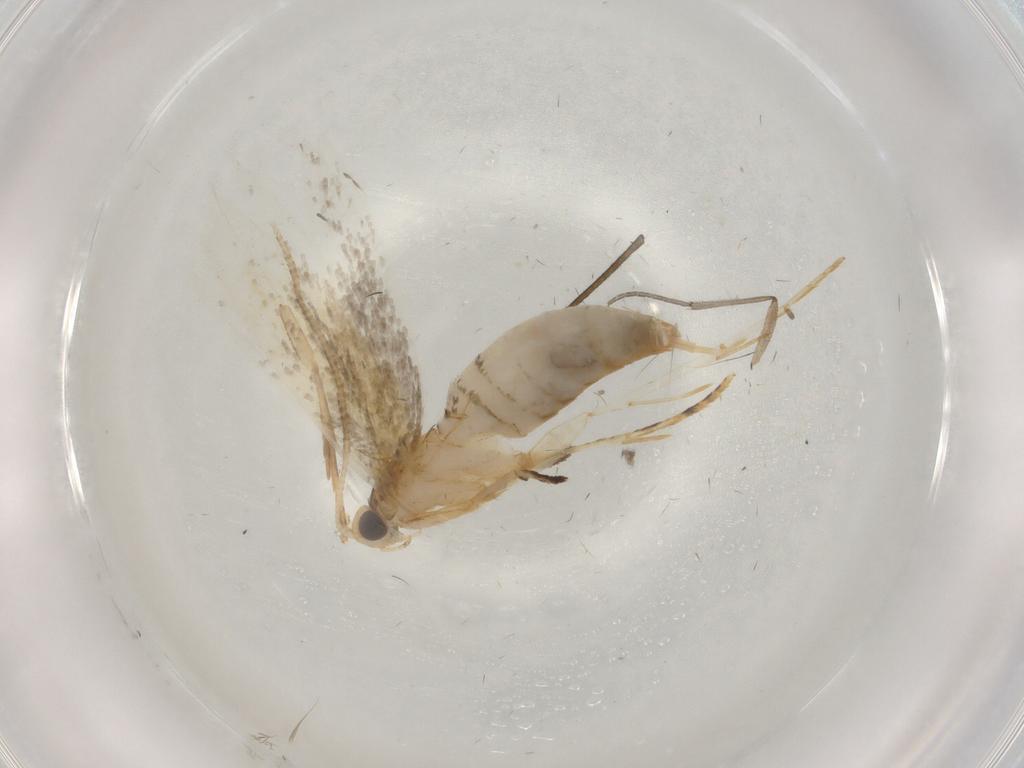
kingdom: Animalia
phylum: Arthropoda
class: Insecta
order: Lepidoptera
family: Tineidae
